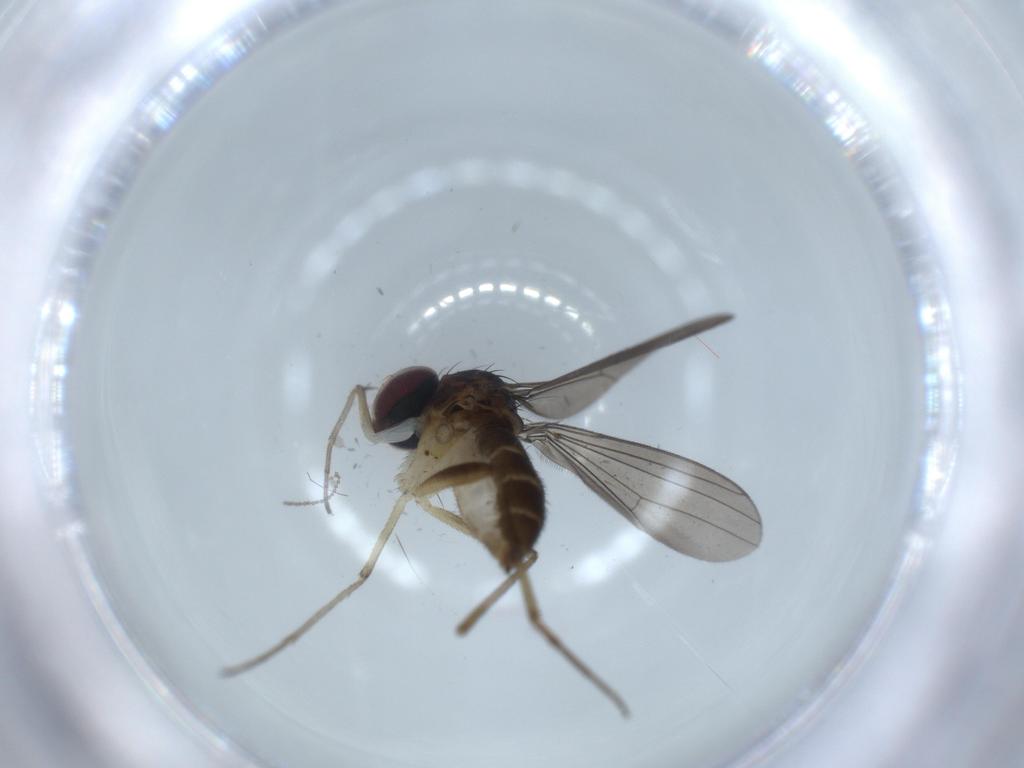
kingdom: Animalia
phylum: Arthropoda
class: Insecta
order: Diptera
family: Dolichopodidae
